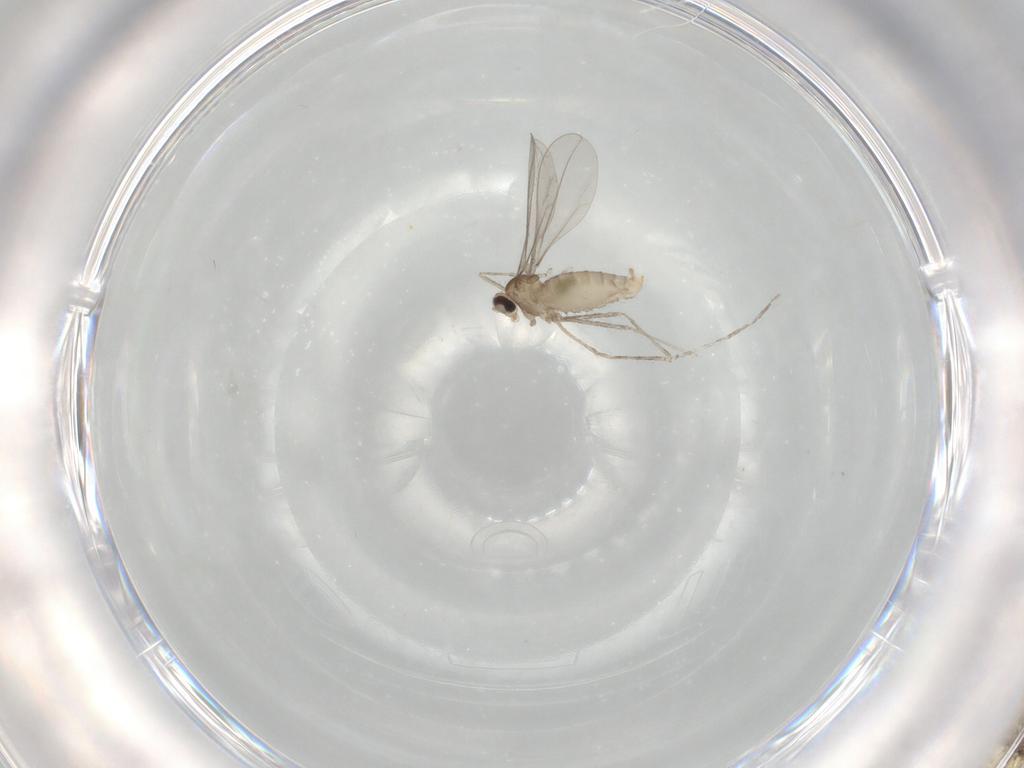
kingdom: Animalia
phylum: Arthropoda
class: Insecta
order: Diptera
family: Cecidomyiidae
